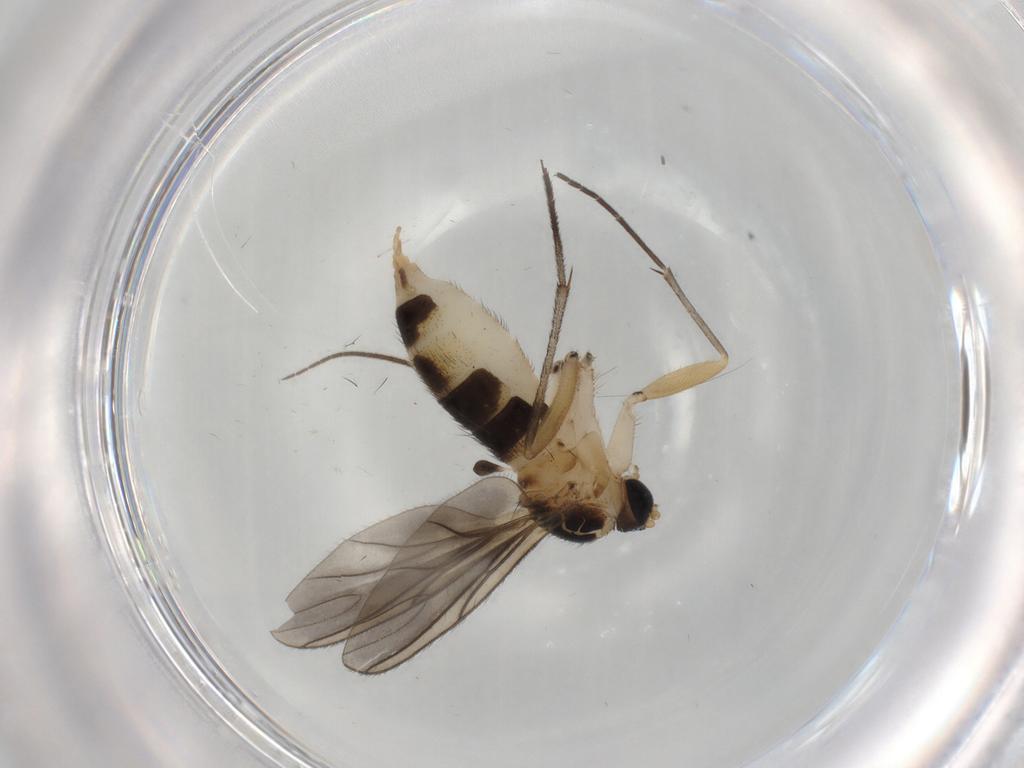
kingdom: Animalia
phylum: Arthropoda
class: Insecta
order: Diptera
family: Sciaridae
